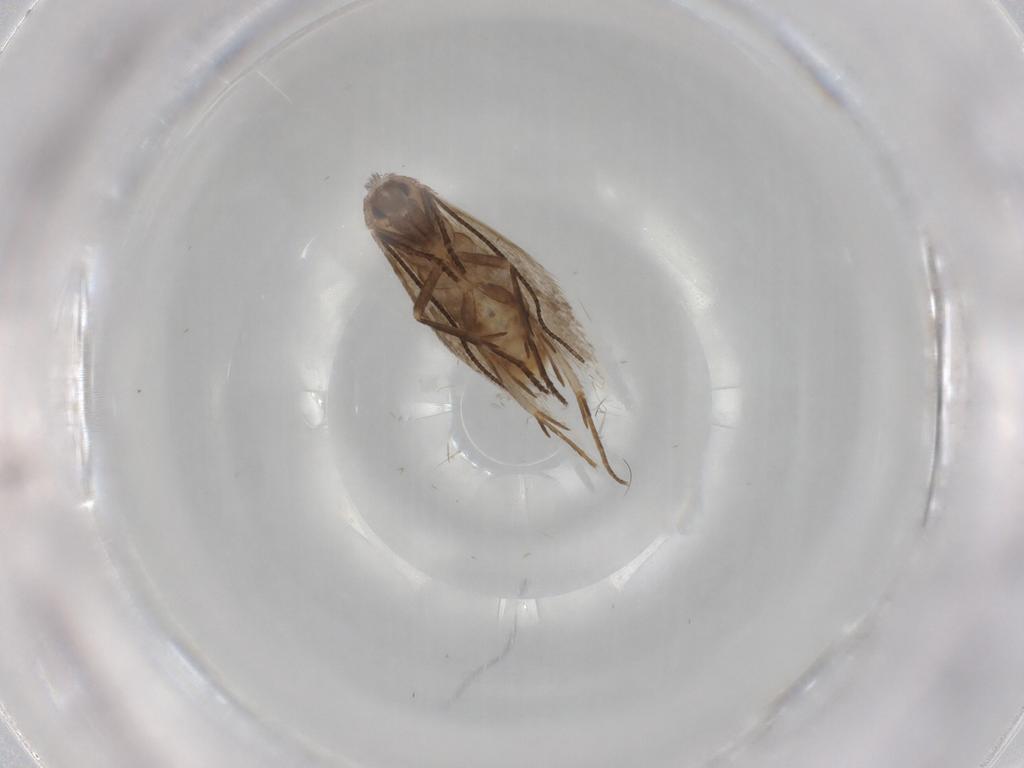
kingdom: Animalia
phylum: Arthropoda
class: Insecta
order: Lepidoptera
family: Bucculatricidae
